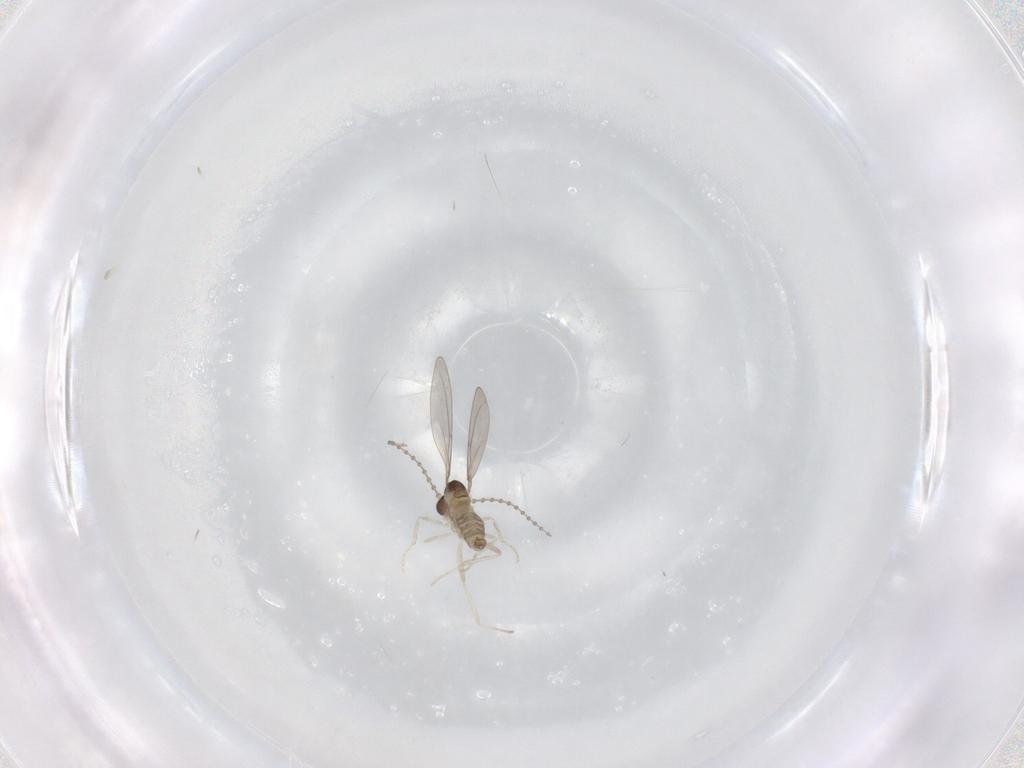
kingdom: Animalia
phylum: Arthropoda
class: Insecta
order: Diptera
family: Cecidomyiidae
